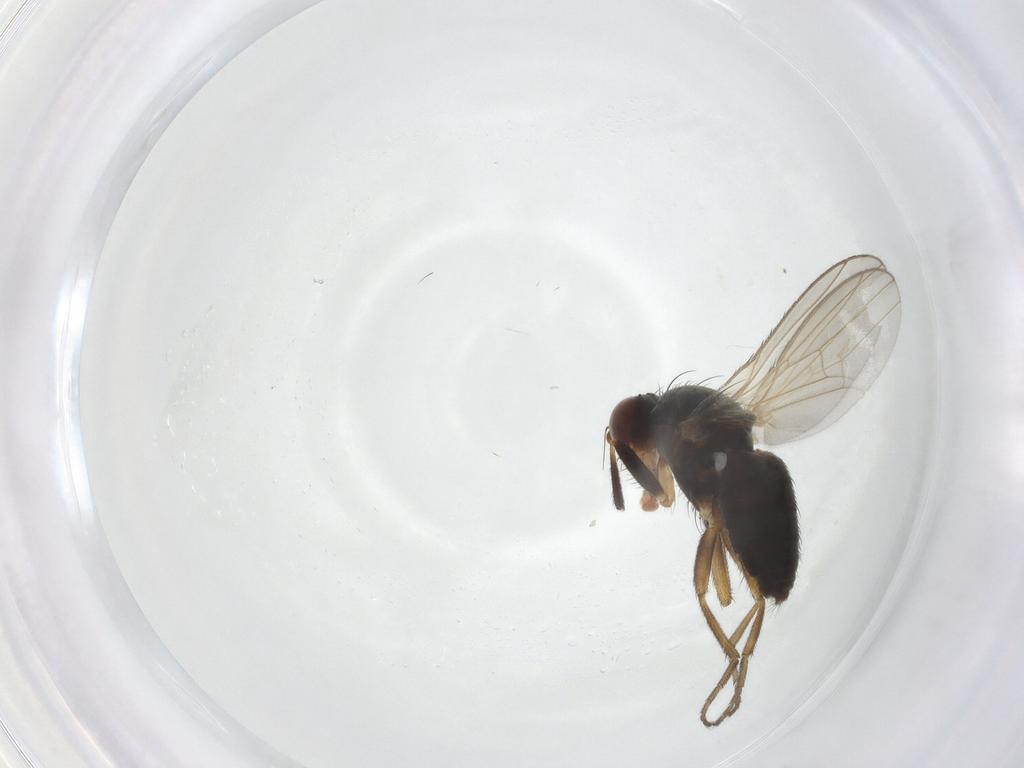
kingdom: Animalia
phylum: Arthropoda
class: Insecta
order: Diptera
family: Heleomyzidae
